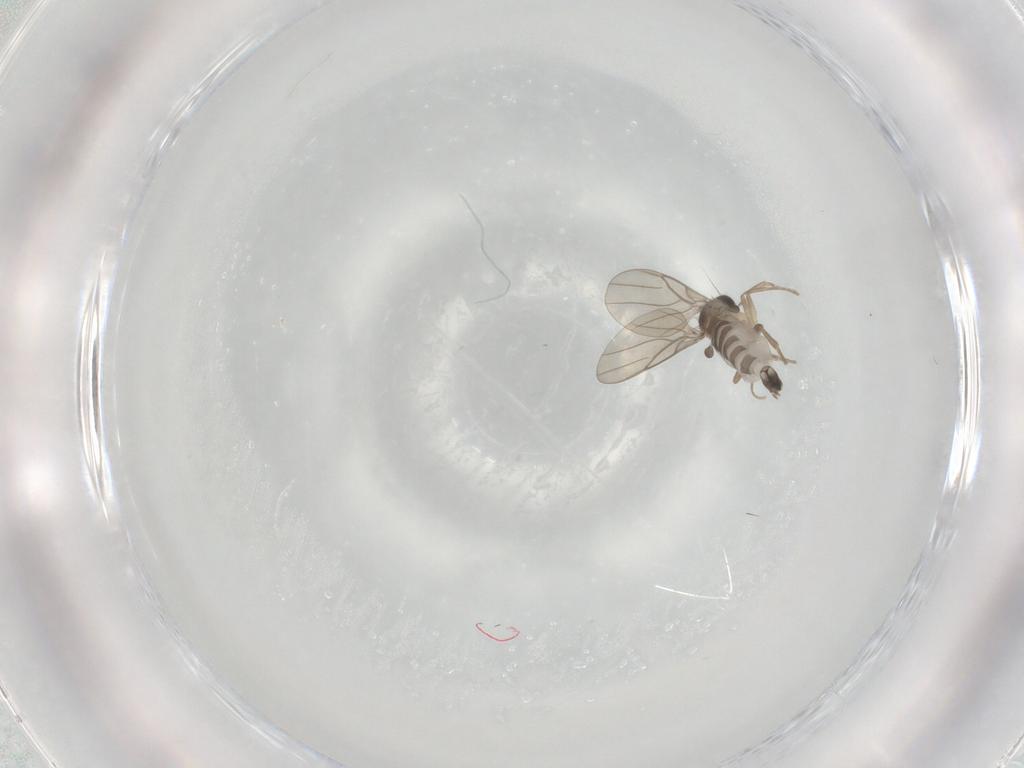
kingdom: Animalia
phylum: Arthropoda
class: Insecta
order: Diptera
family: Phoridae
